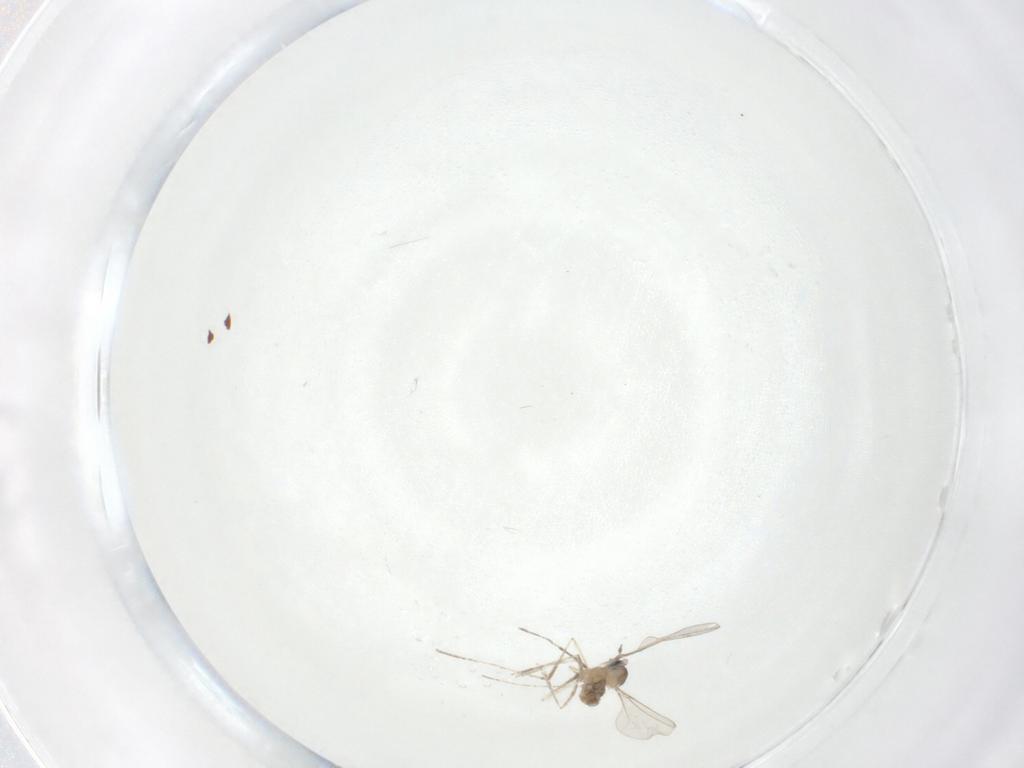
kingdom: Animalia
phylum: Arthropoda
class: Insecta
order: Diptera
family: Cecidomyiidae
